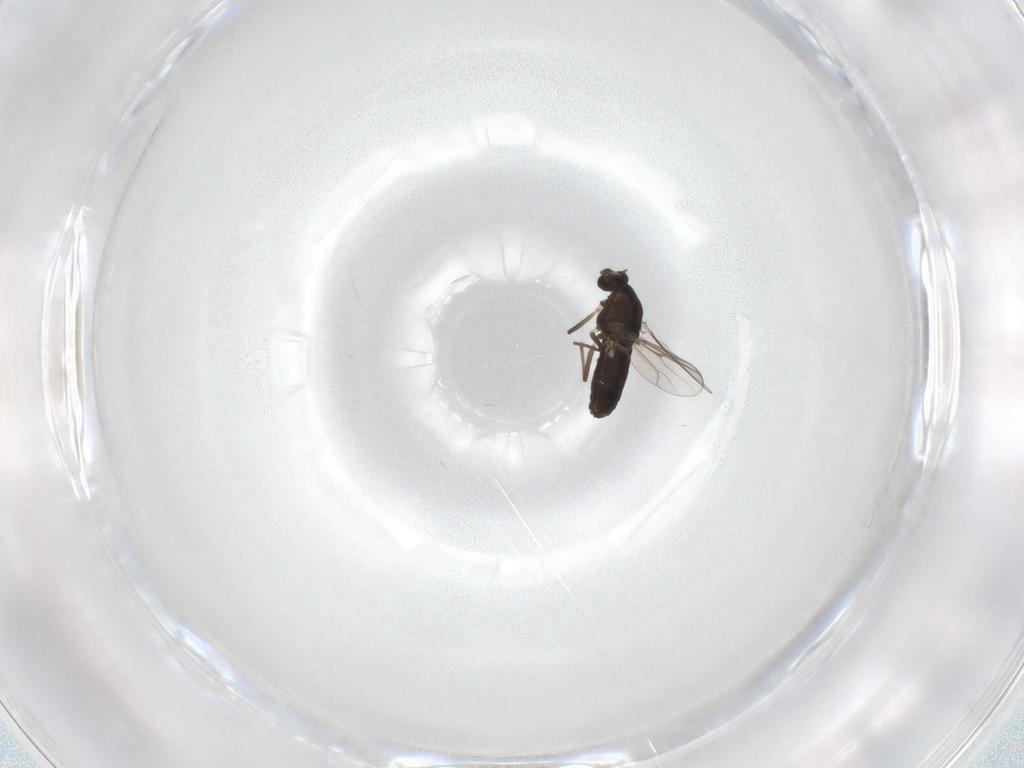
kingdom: Animalia
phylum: Arthropoda
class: Insecta
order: Diptera
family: Chironomidae
